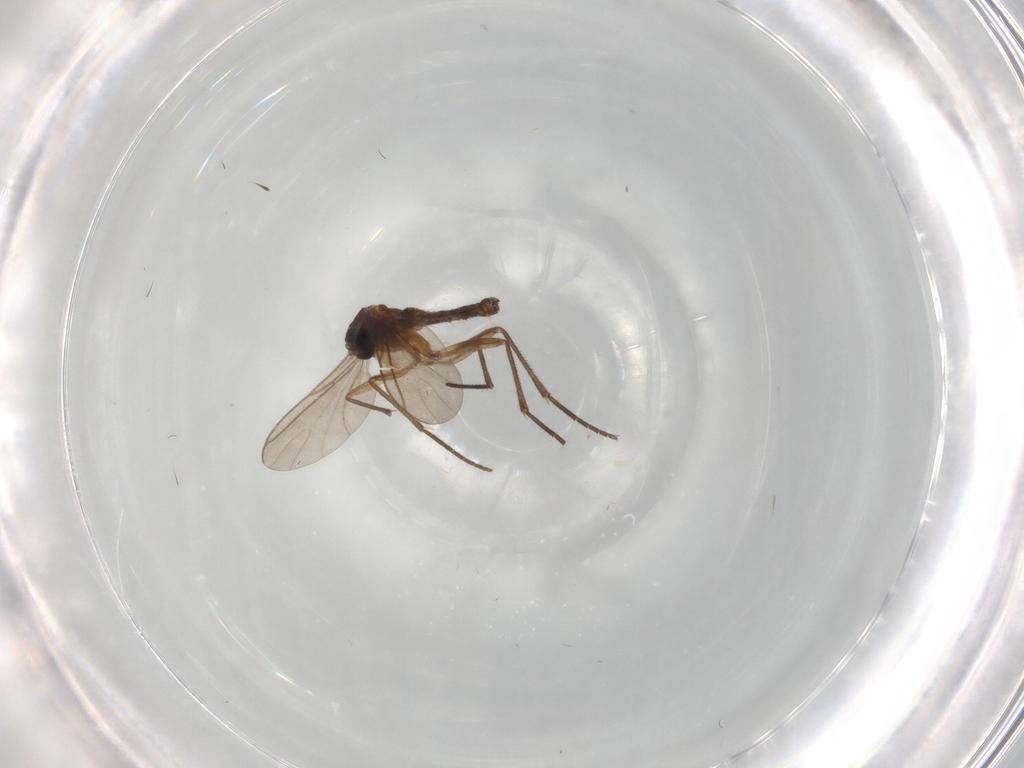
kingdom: Animalia
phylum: Arthropoda
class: Insecta
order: Diptera
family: Sciaridae
